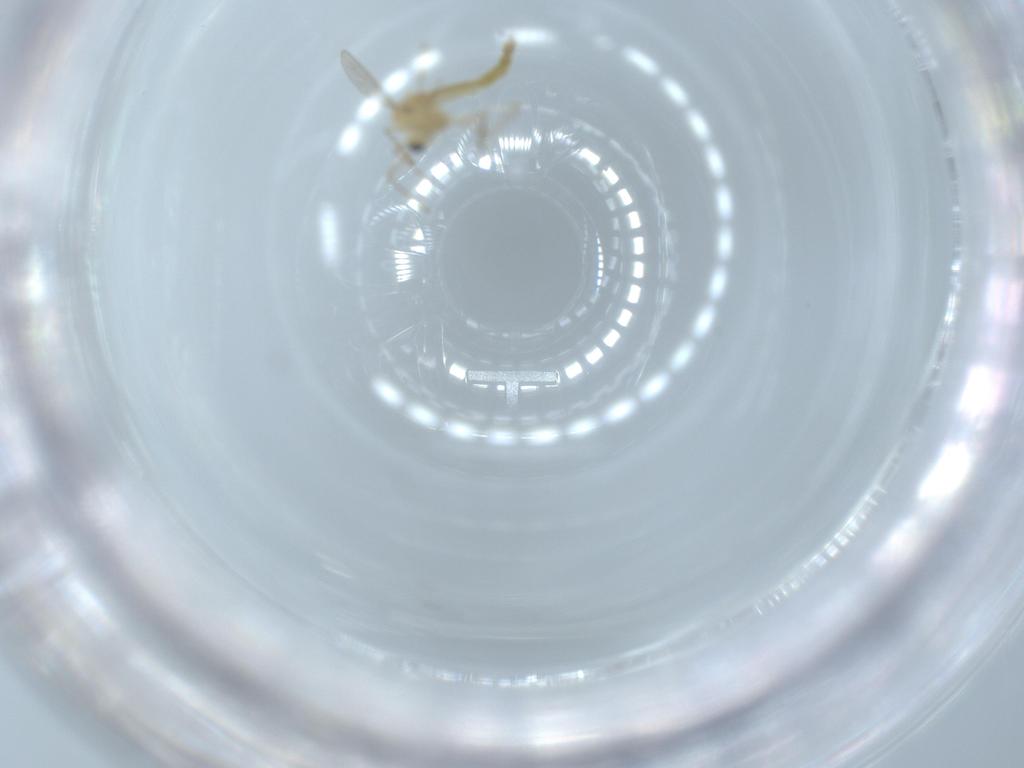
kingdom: Animalia
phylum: Arthropoda
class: Insecta
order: Diptera
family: Chironomidae
